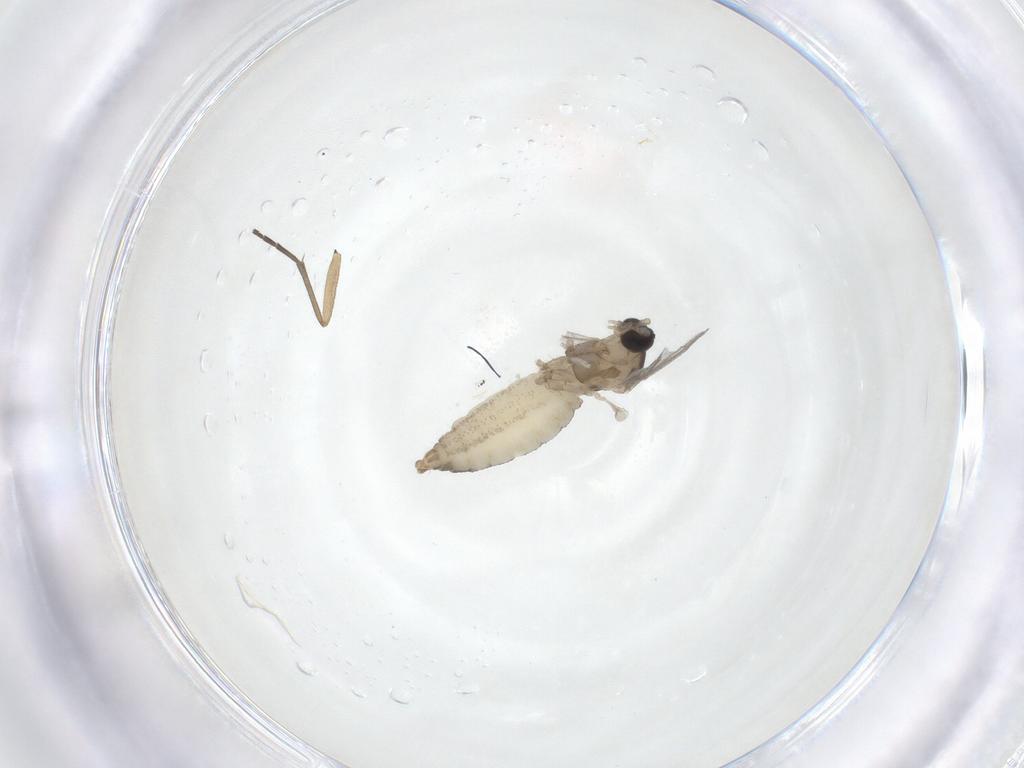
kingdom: Animalia
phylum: Arthropoda
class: Insecta
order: Diptera
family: Cecidomyiidae
